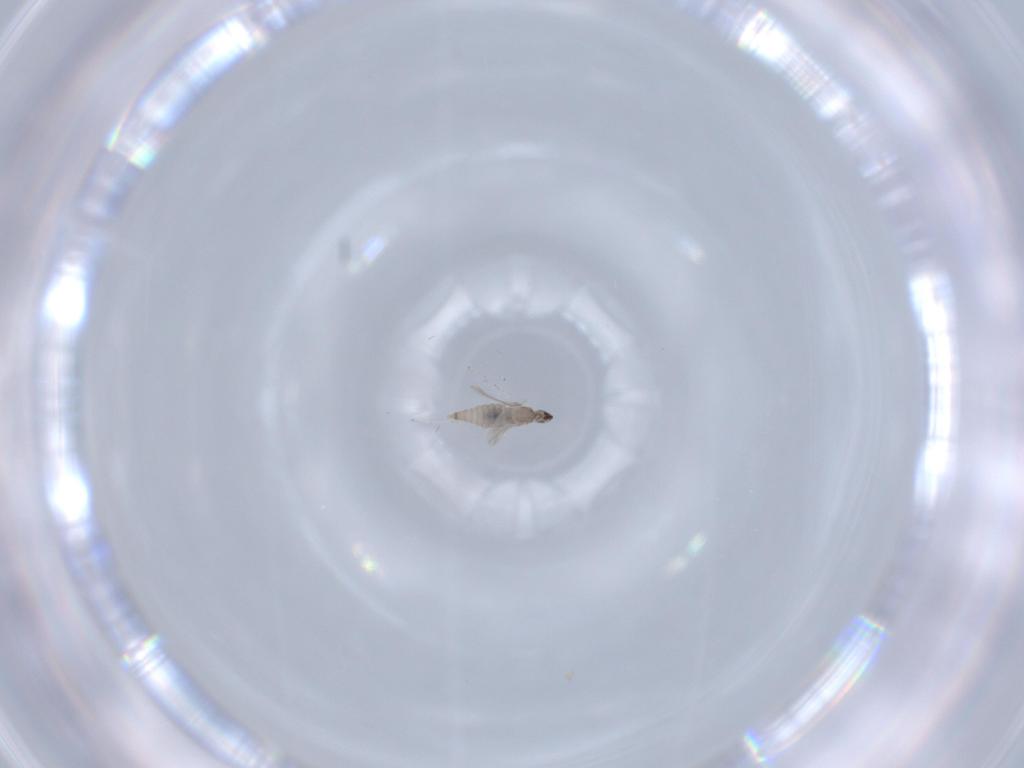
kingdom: Animalia
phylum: Arthropoda
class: Insecta
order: Diptera
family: Cecidomyiidae
